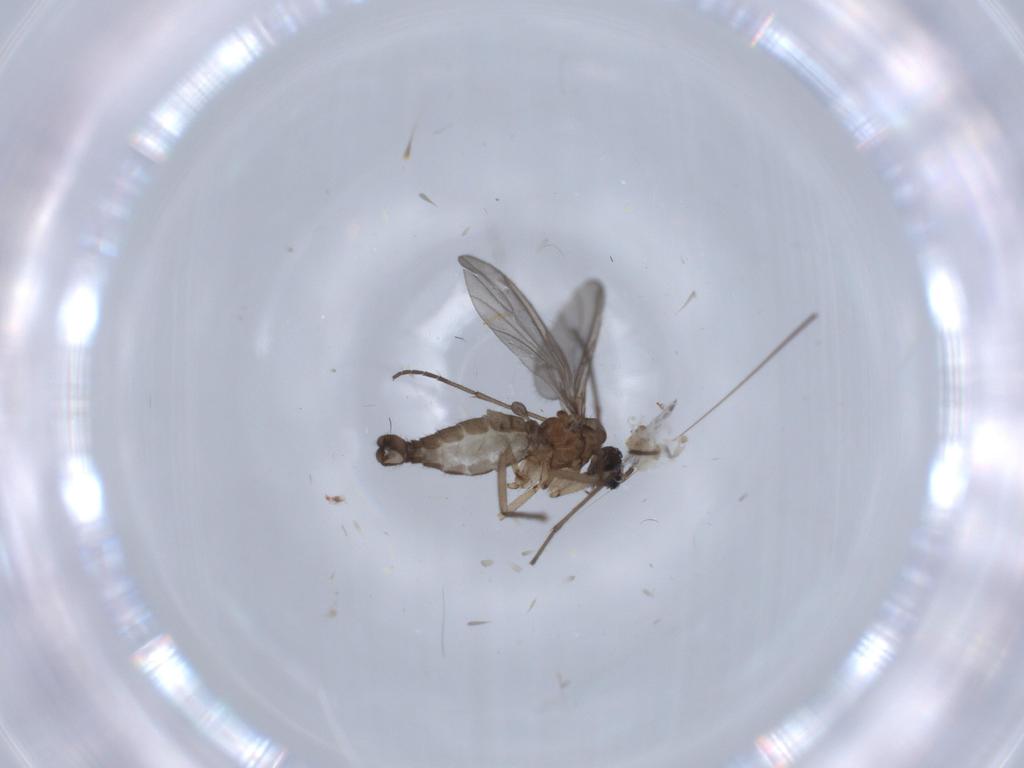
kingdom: Animalia
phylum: Arthropoda
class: Insecta
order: Diptera
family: Sciaridae
